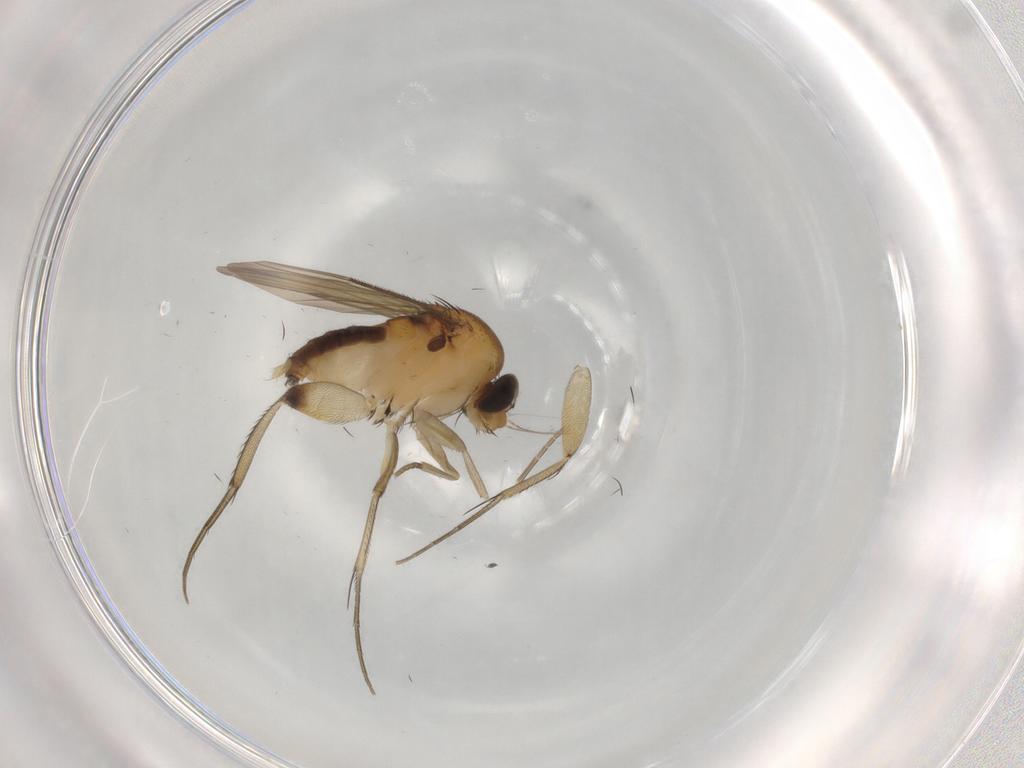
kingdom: Animalia
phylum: Arthropoda
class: Insecta
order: Diptera
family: Phoridae
